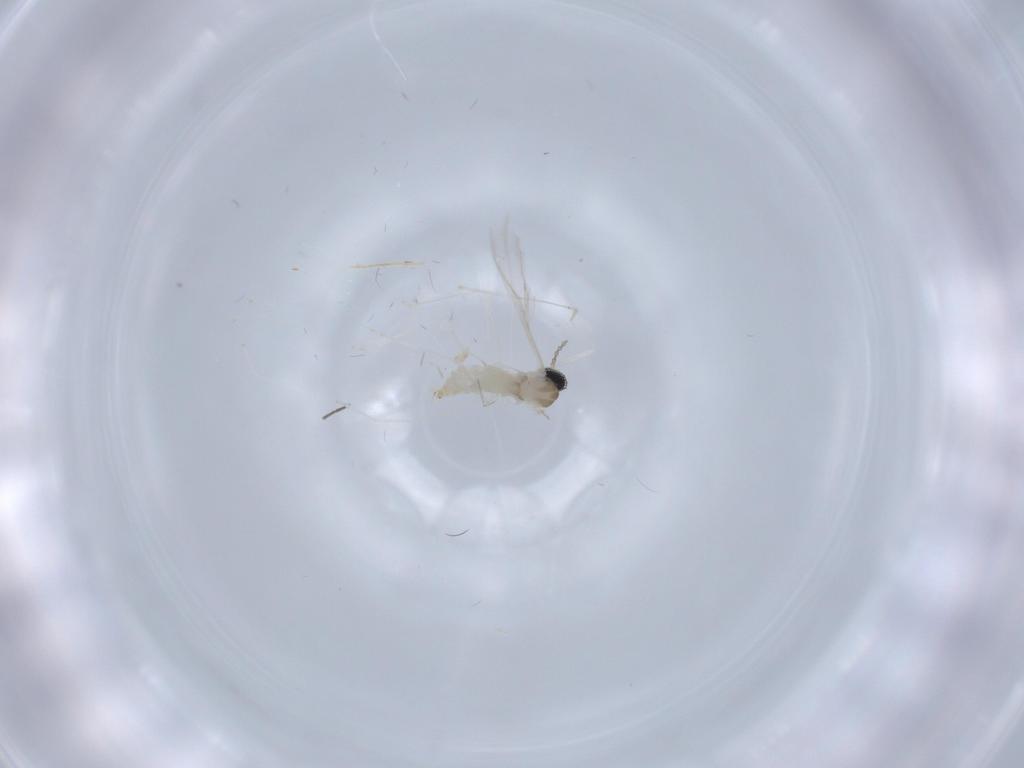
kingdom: Animalia
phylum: Arthropoda
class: Insecta
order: Diptera
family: Cecidomyiidae
